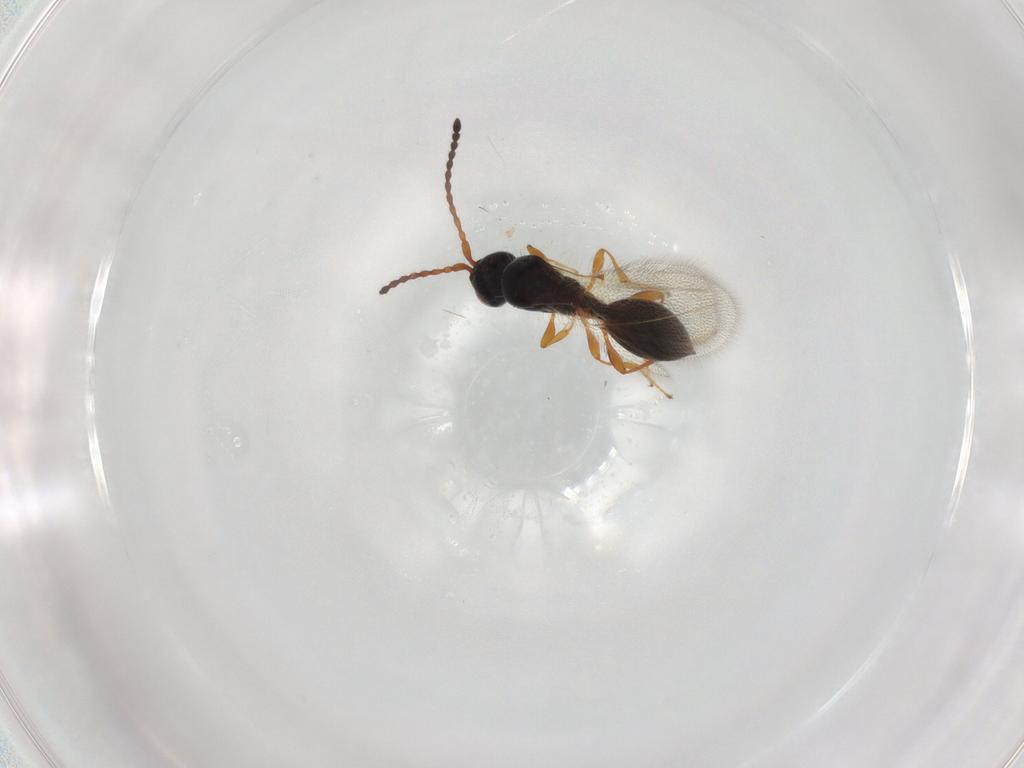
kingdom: Animalia
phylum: Arthropoda
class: Insecta
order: Hymenoptera
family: Diapriidae
